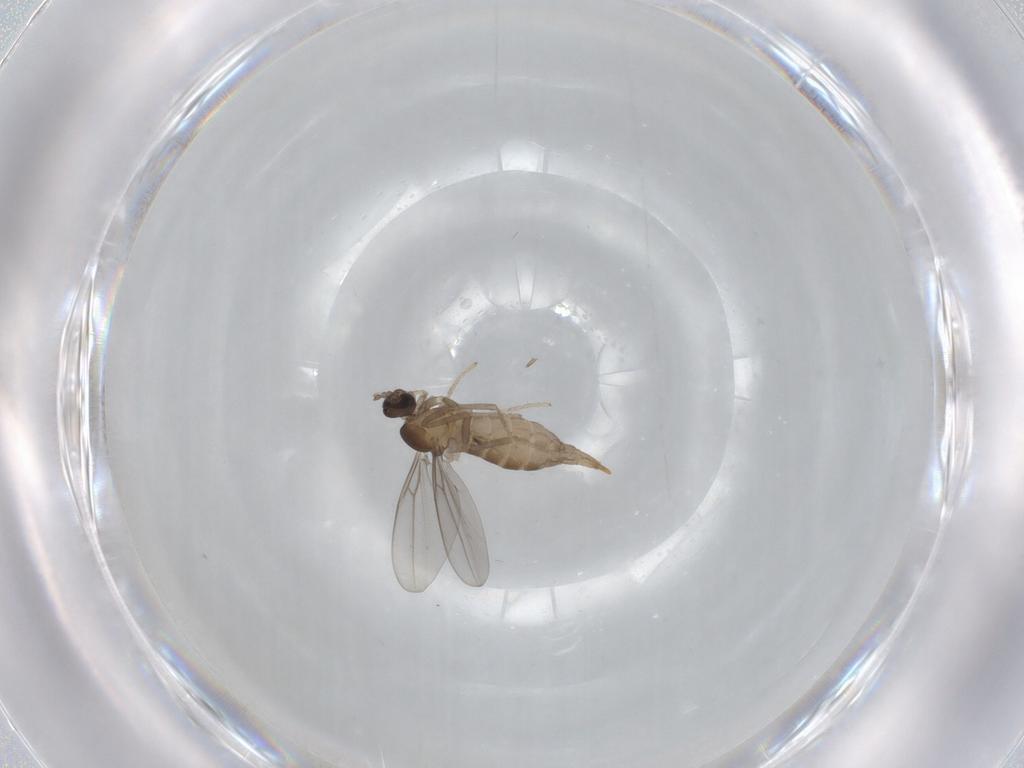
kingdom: Animalia
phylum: Arthropoda
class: Insecta
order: Diptera
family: Cecidomyiidae
